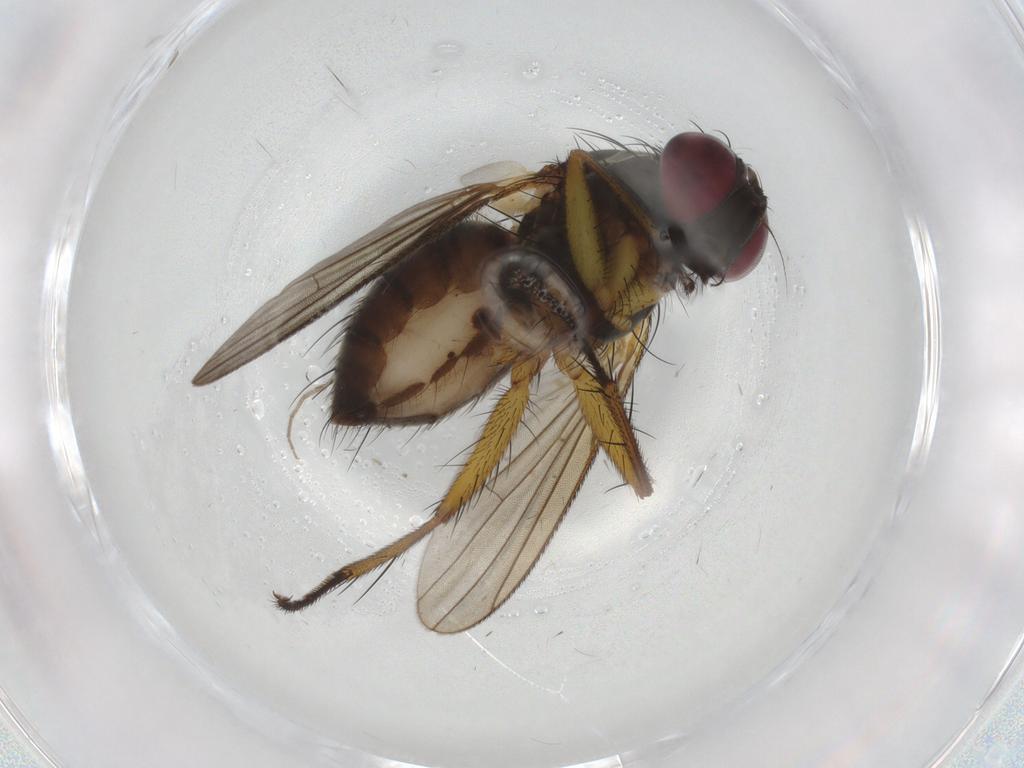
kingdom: Animalia
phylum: Arthropoda
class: Insecta
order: Diptera
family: Muscidae
